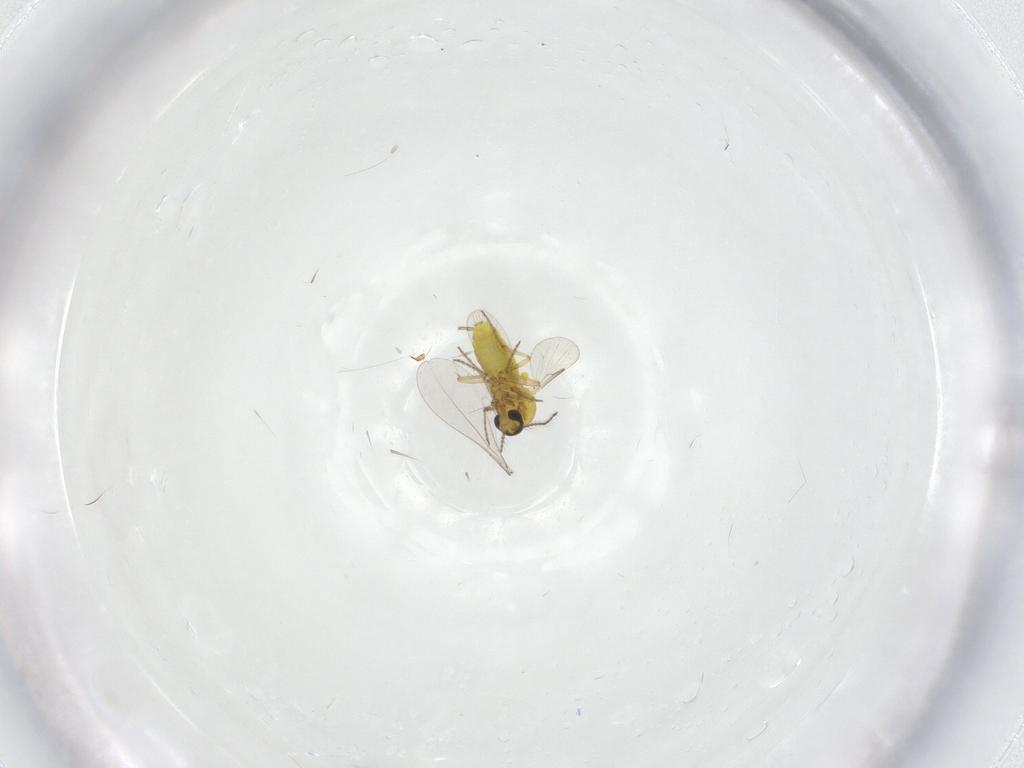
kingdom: Animalia
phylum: Arthropoda
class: Insecta
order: Diptera
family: Ceratopogonidae
